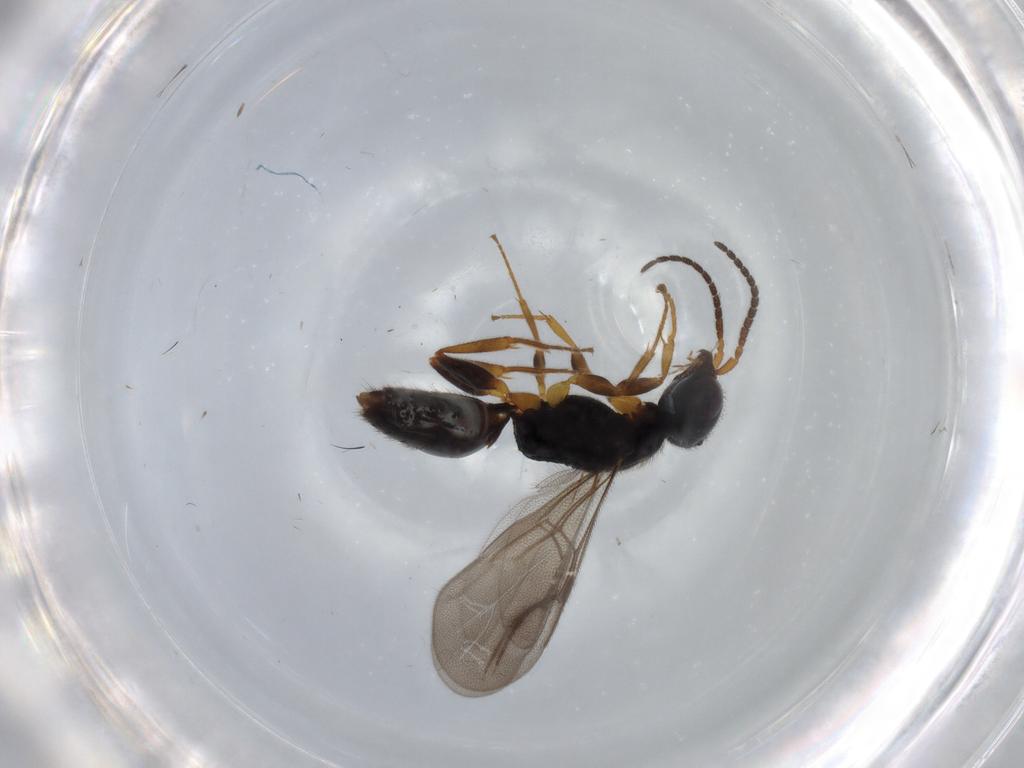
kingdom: Animalia
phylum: Arthropoda
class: Insecta
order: Hymenoptera
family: Bethylidae
